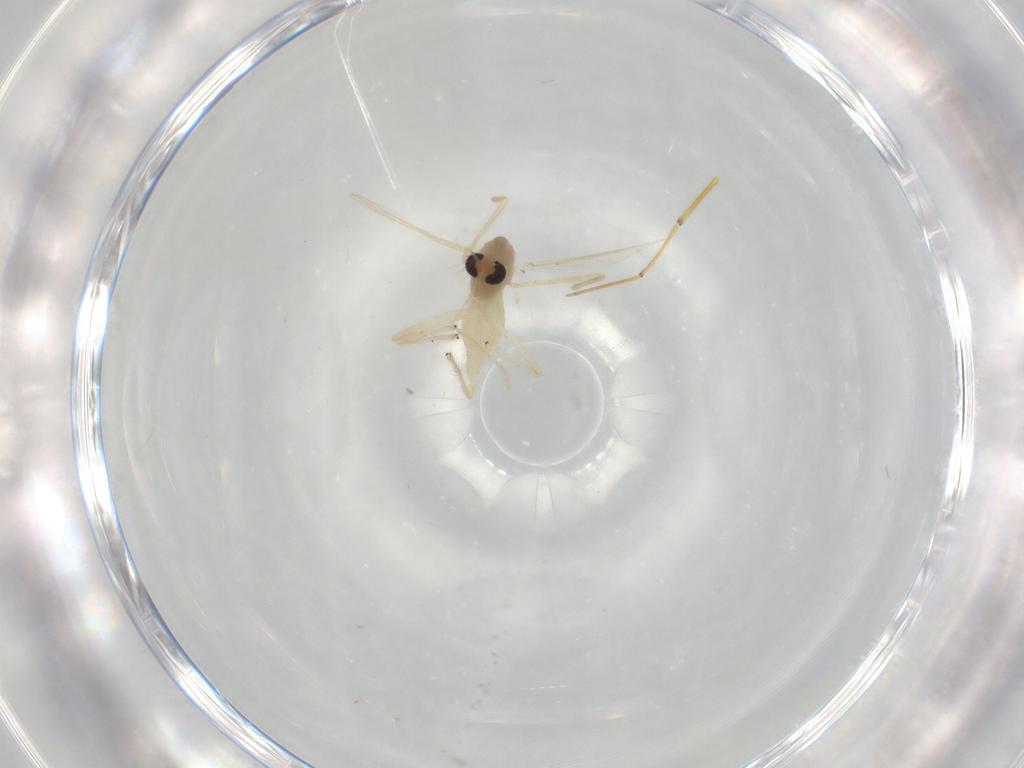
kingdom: Animalia
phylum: Arthropoda
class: Insecta
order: Diptera
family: Chironomidae
